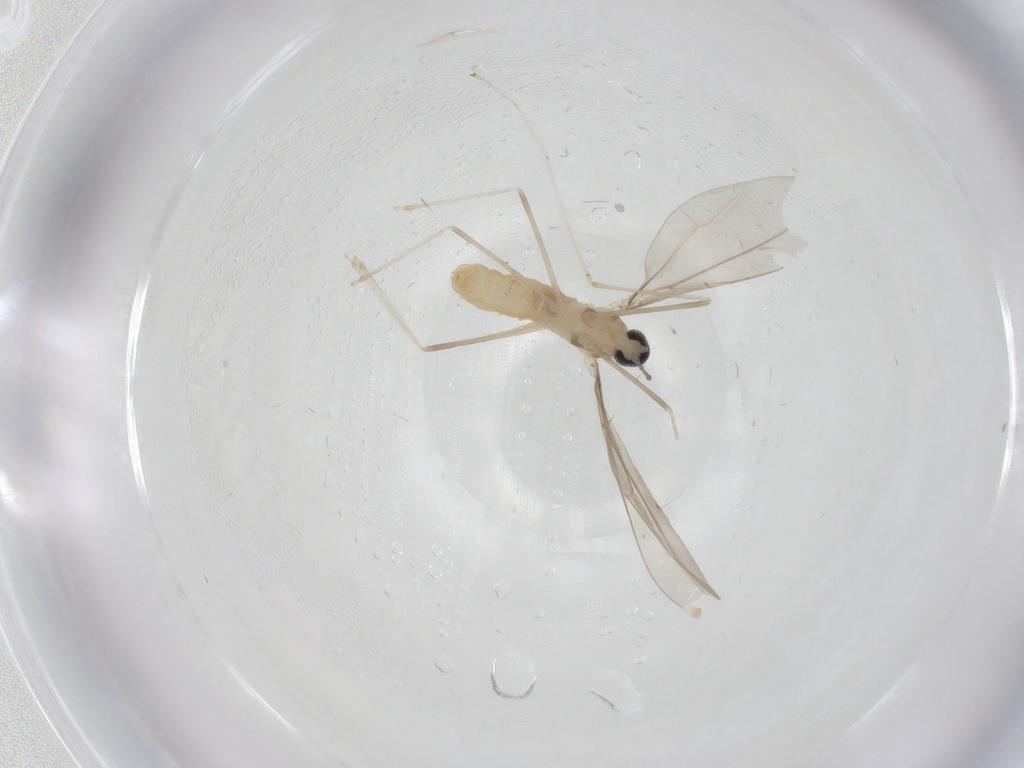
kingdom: Animalia
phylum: Arthropoda
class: Insecta
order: Diptera
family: Cecidomyiidae
